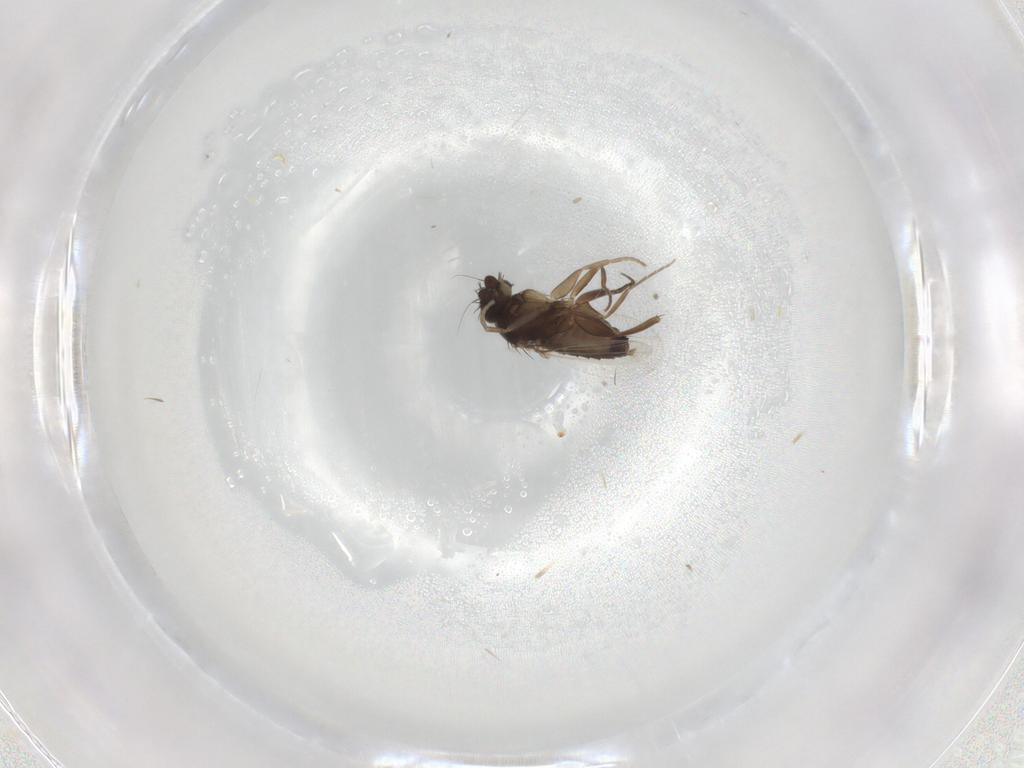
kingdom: Animalia
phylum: Arthropoda
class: Insecta
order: Diptera
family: Phoridae
